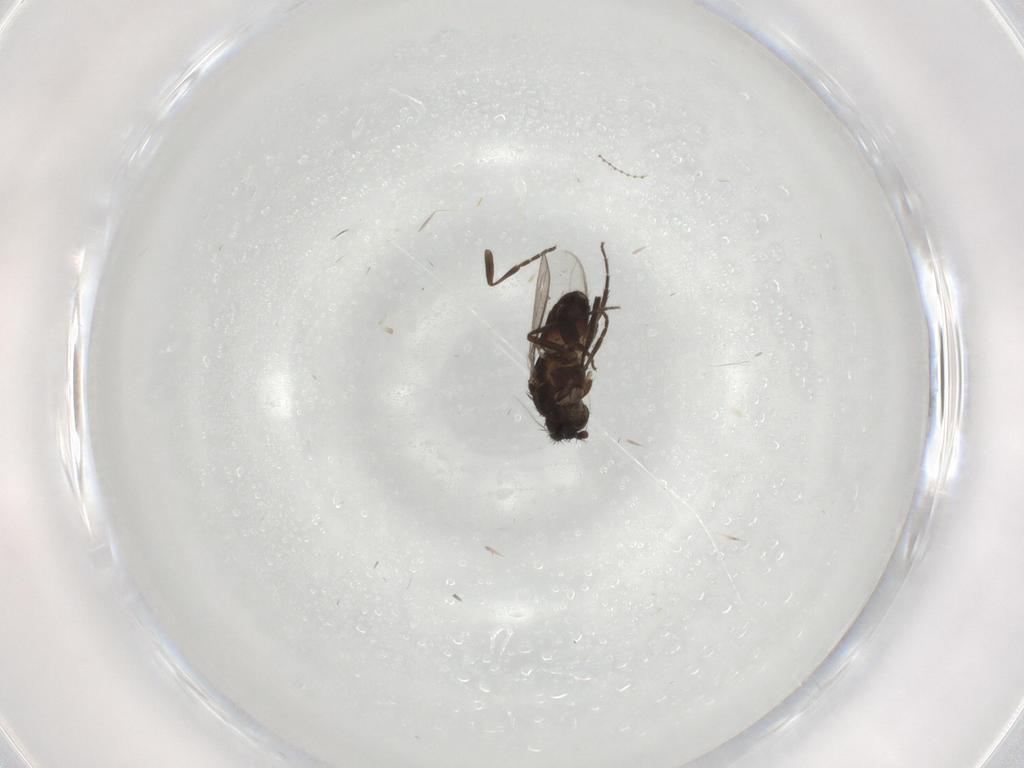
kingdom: Animalia
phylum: Arthropoda
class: Insecta
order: Diptera
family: Sphaeroceridae
